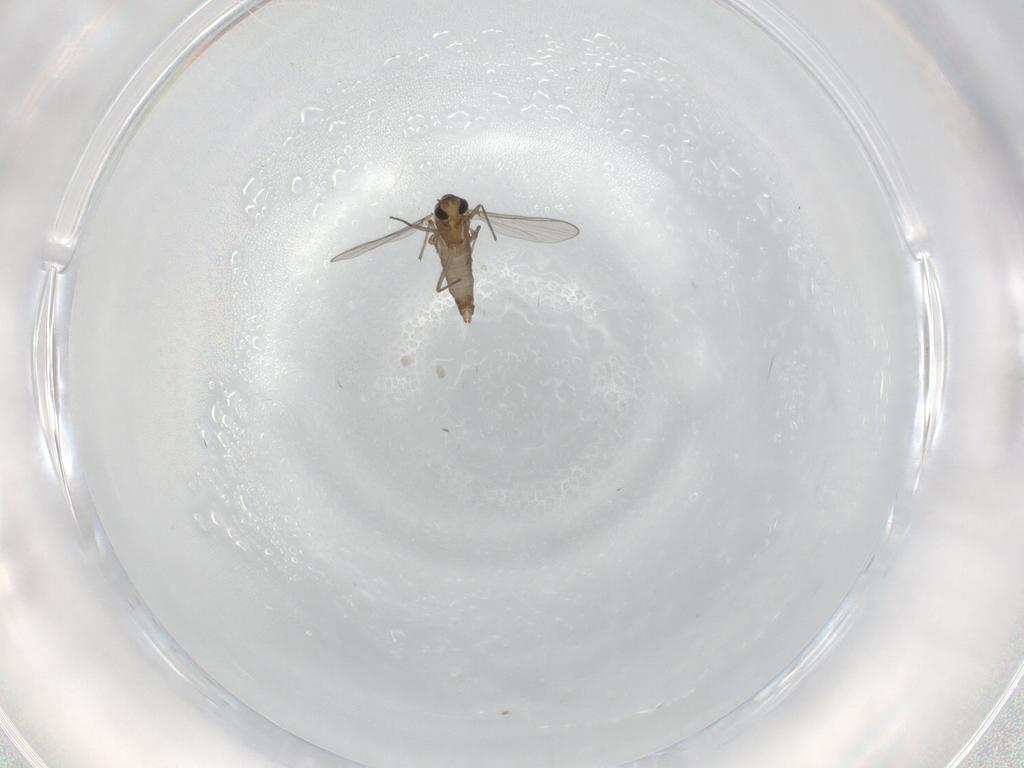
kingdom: Animalia
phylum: Arthropoda
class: Insecta
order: Diptera
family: Chironomidae
